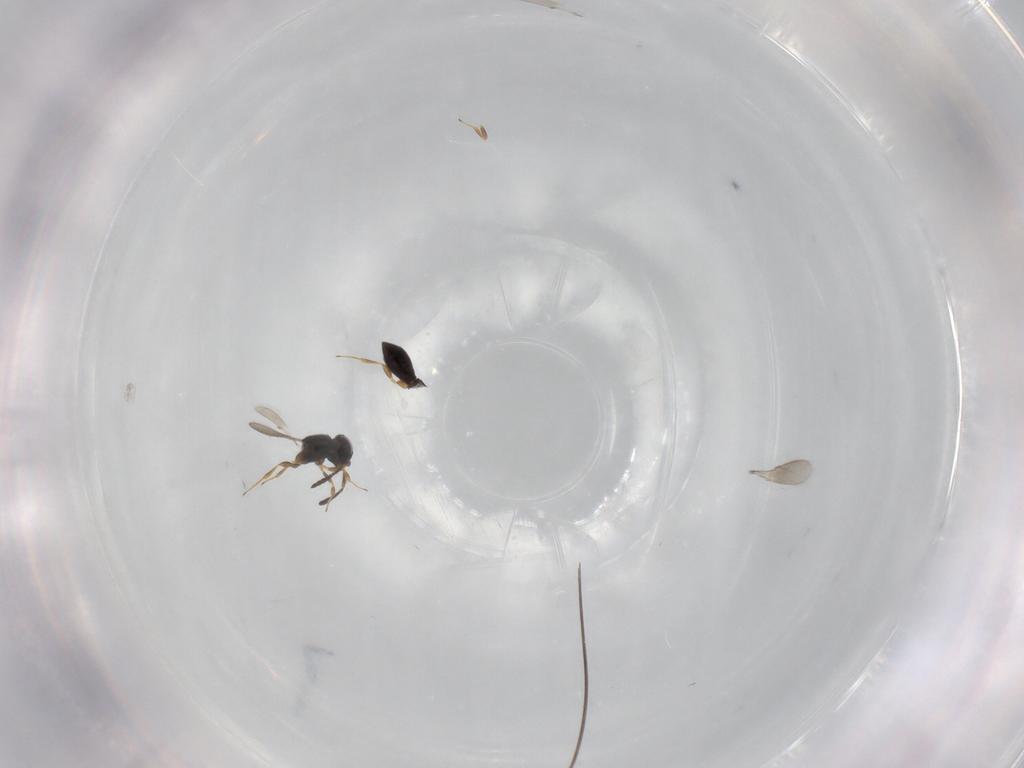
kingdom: Animalia
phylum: Arthropoda
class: Insecta
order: Hymenoptera
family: Scelionidae
